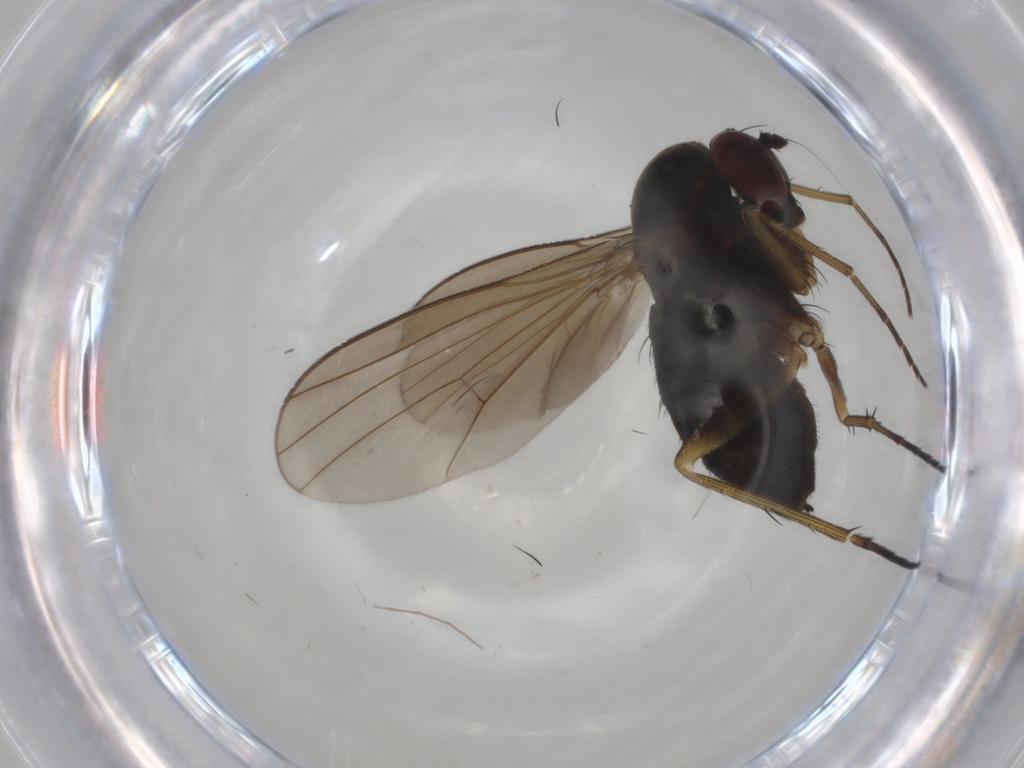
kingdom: Animalia
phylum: Arthropoda
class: Insecta
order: Diptera
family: Dolichopodidae
